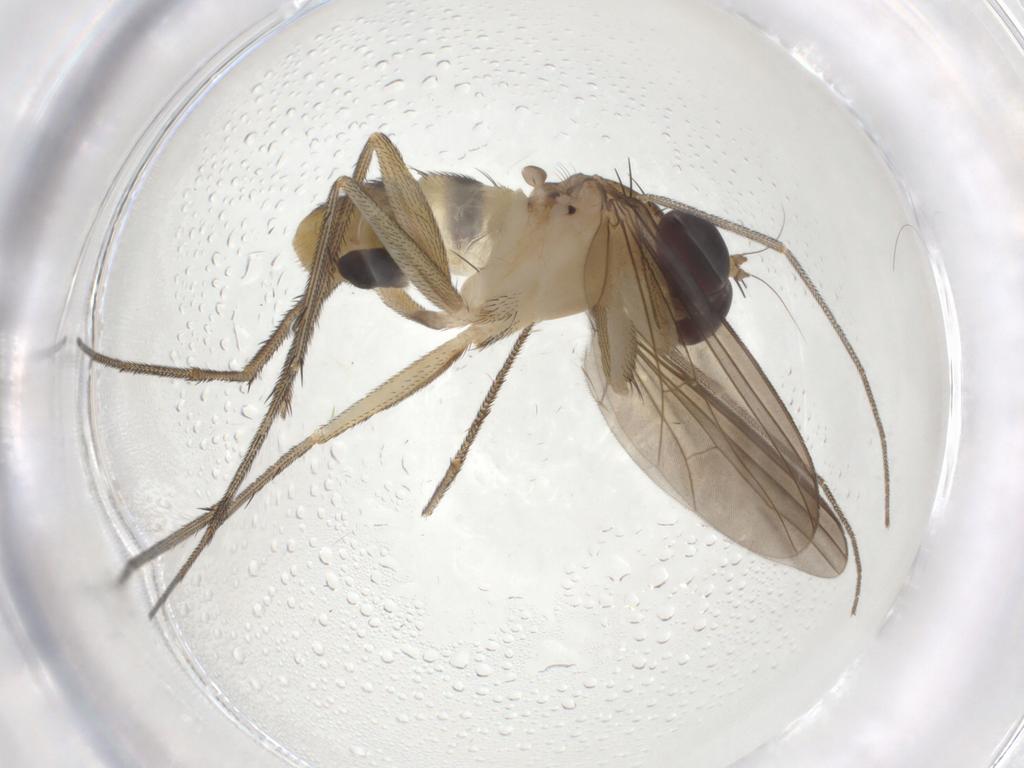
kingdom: Animalia
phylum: Arthropoda
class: Insecta
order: Diptera
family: Dolichopodidae
